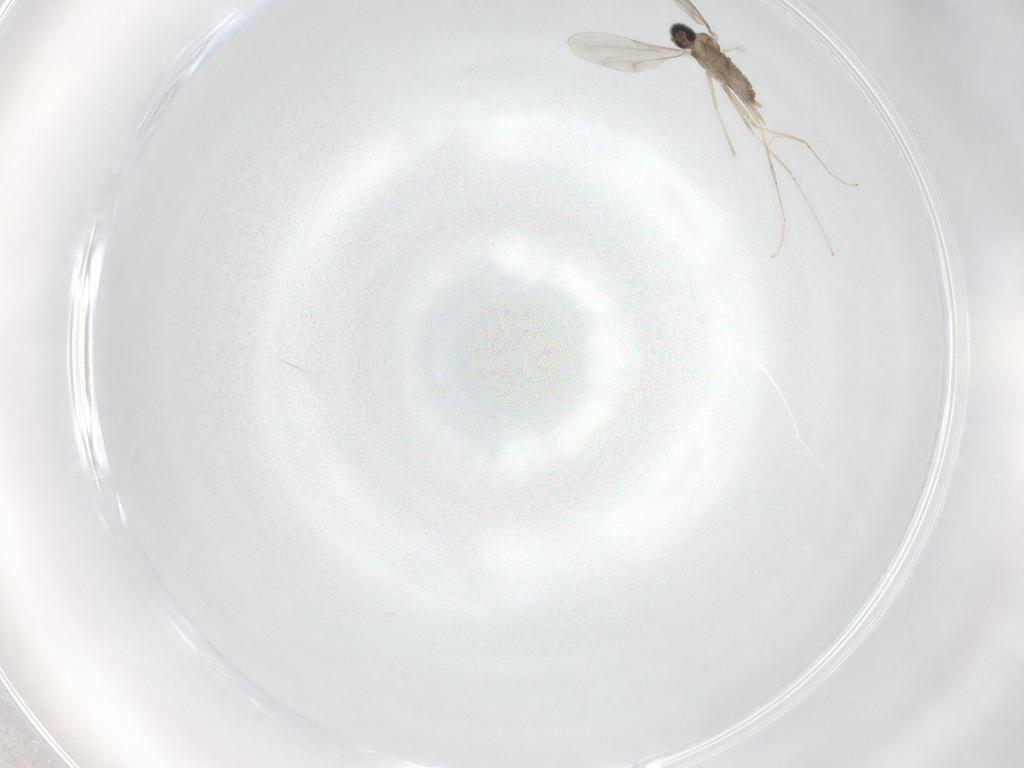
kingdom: Animalia
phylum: Arthropoda
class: Insecta
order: Diptera
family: Cecidomyiidae
